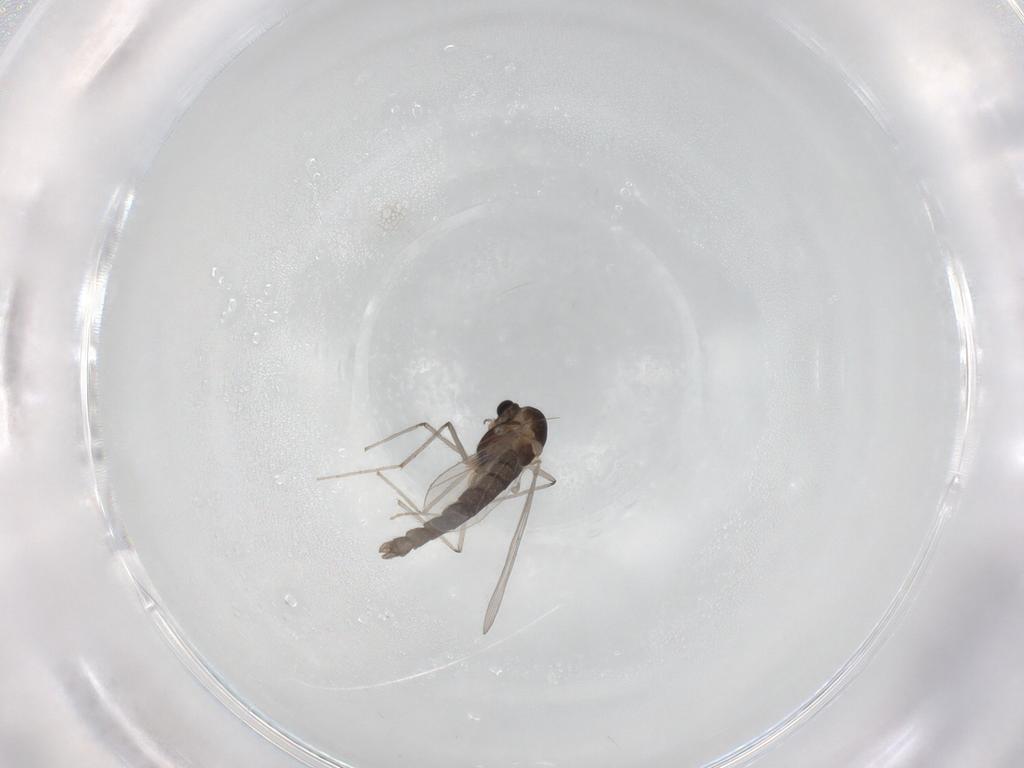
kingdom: Animalia
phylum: Arthropoda
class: Insecta
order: Diptera
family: Phoridae
